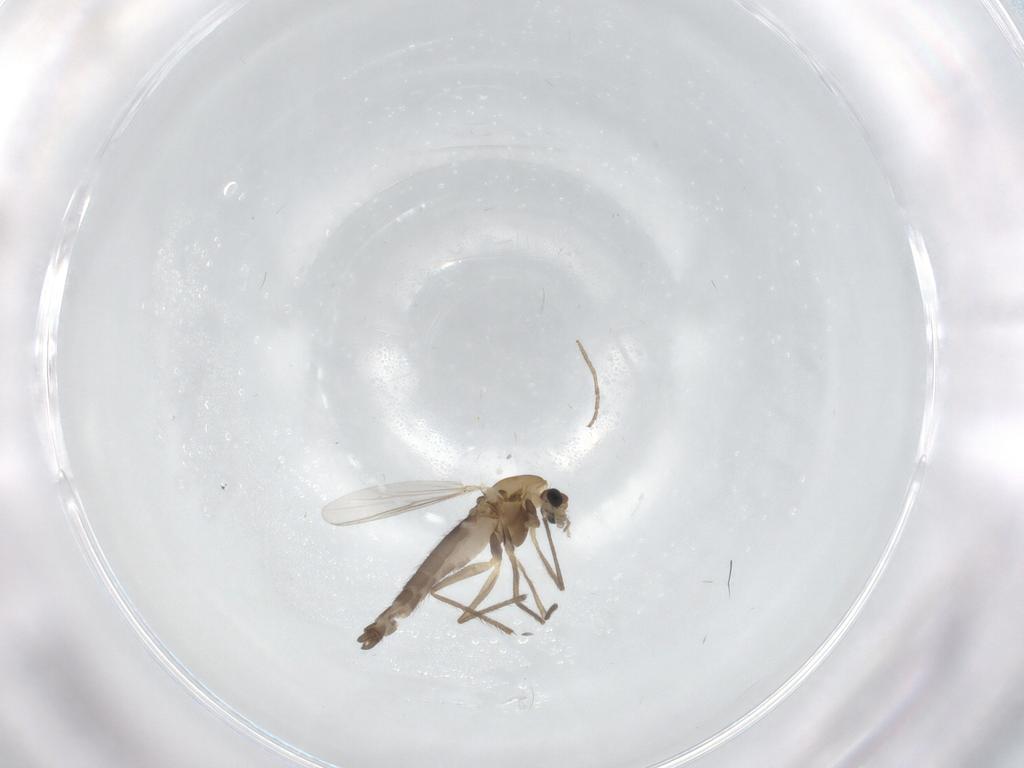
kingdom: Animalia
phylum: Arthropoda
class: Insecta
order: Diptera
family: Chironomidae
